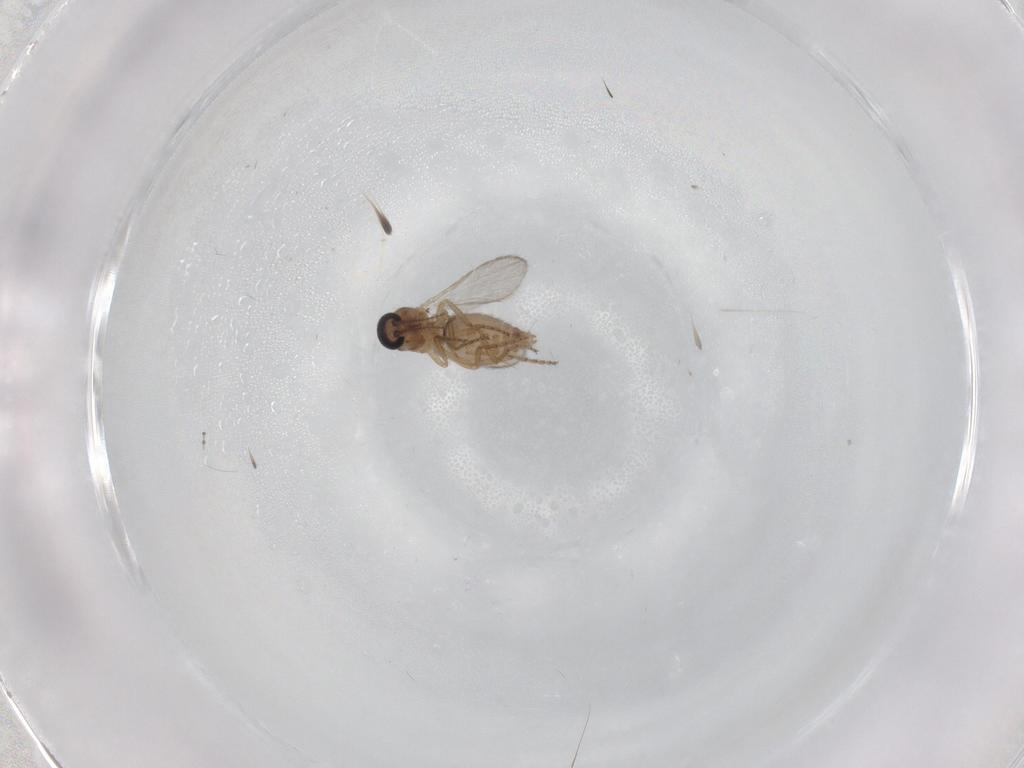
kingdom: Animalia
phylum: Arthropoda
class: Insecta
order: Diptera
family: Ceratopogonidae
